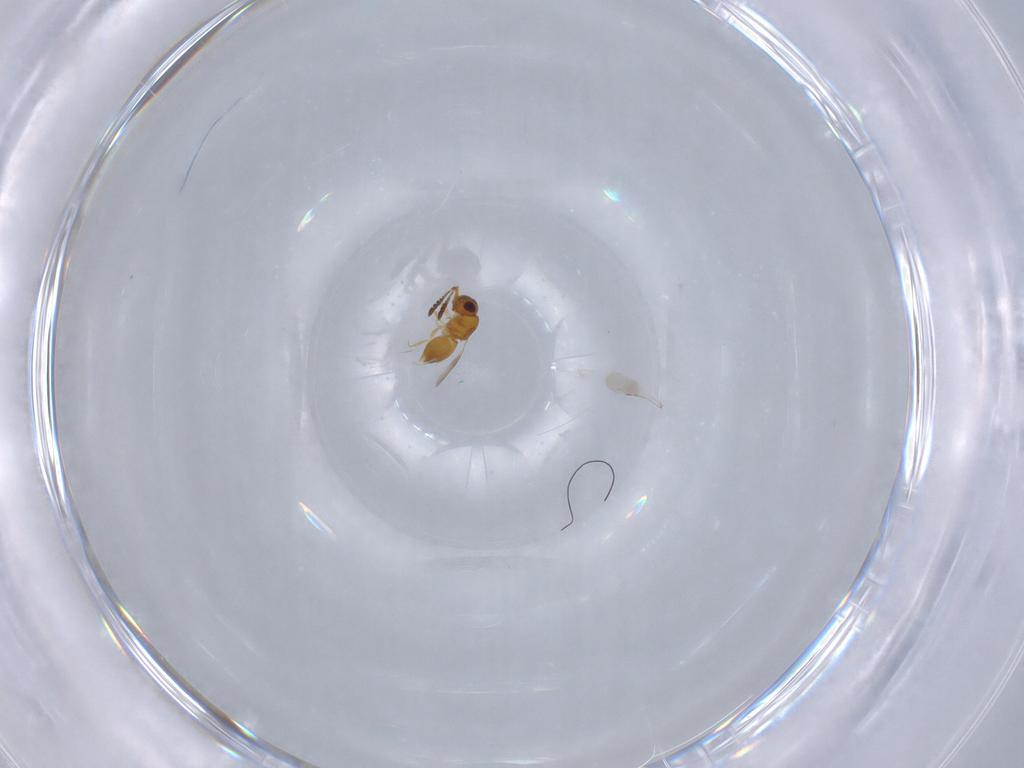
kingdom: Animalia
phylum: Arthropoda
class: Insecta
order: Hymenoptera
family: Braconidae
